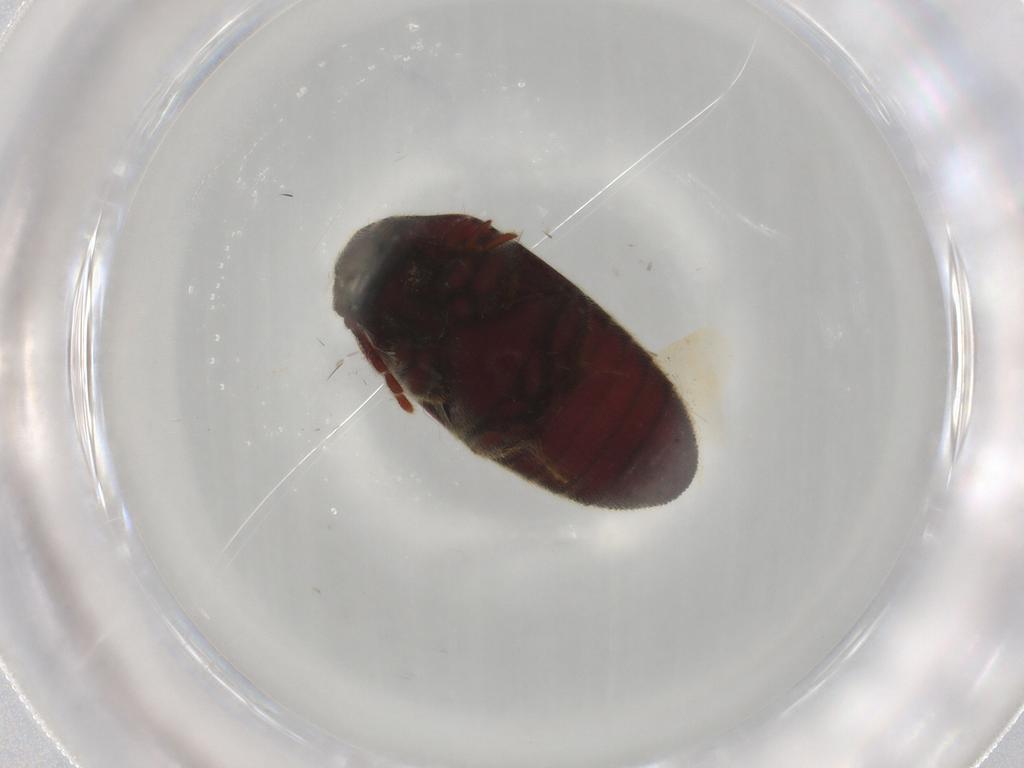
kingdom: Animalia
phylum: Arthropoda
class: Insecta
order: Coleoptera
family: Throscidae
